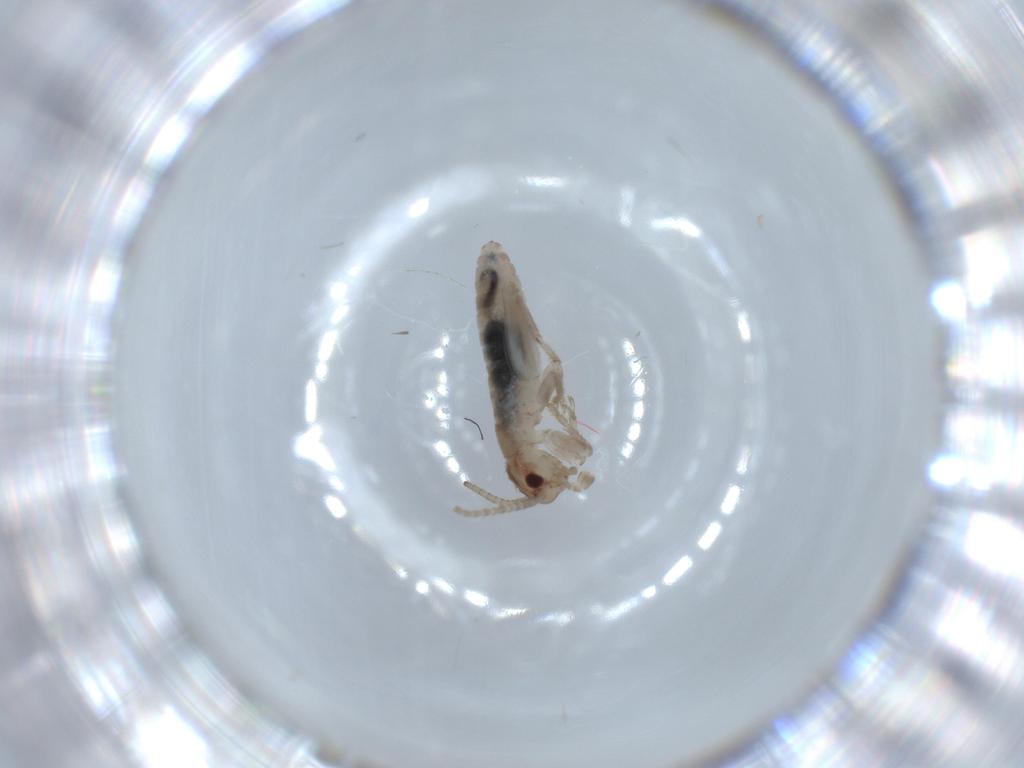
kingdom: Animalia
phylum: Arthropoda
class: Insecta
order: Orthoptera
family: Mogoplistidae
